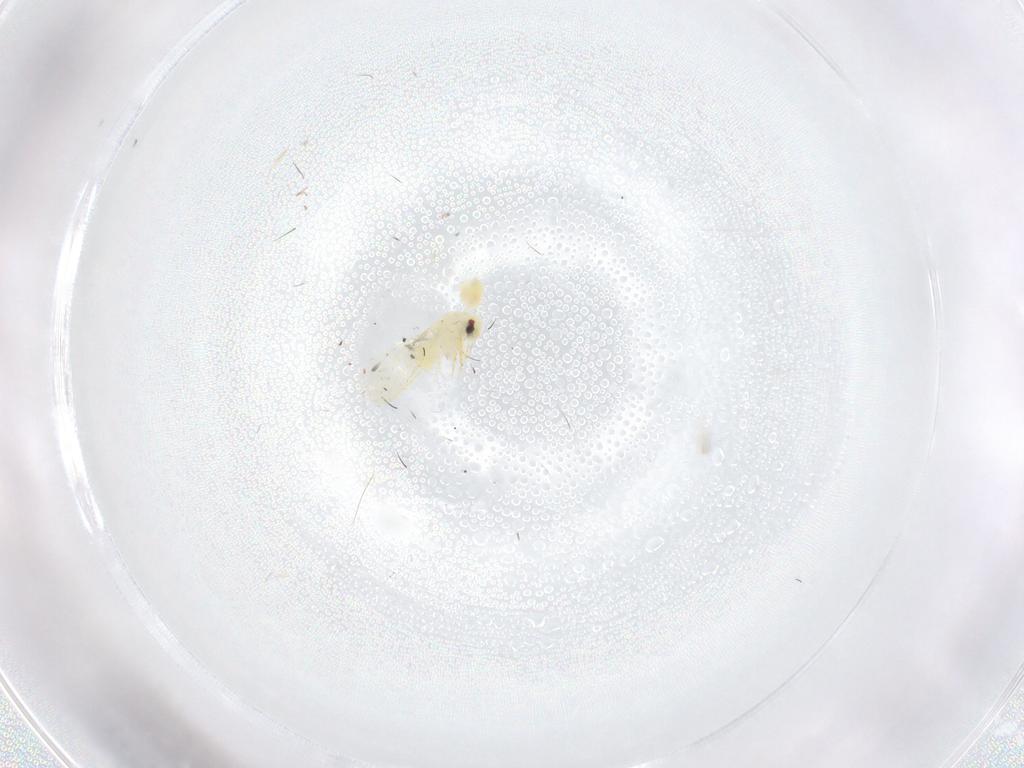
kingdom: Animalia
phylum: Arthropoda
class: Insecta
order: Hemiptera
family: Aleyrodidae
